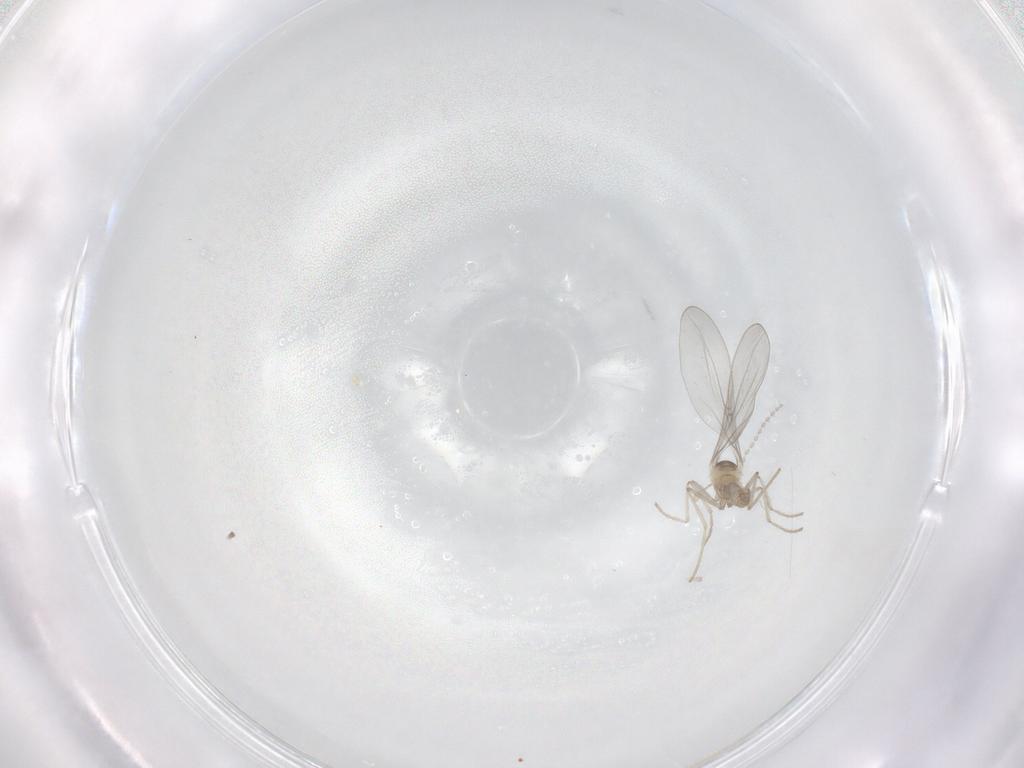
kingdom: Animalia
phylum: Arthropoda
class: Insecta
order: Diptera
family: Cecidomyiidae
